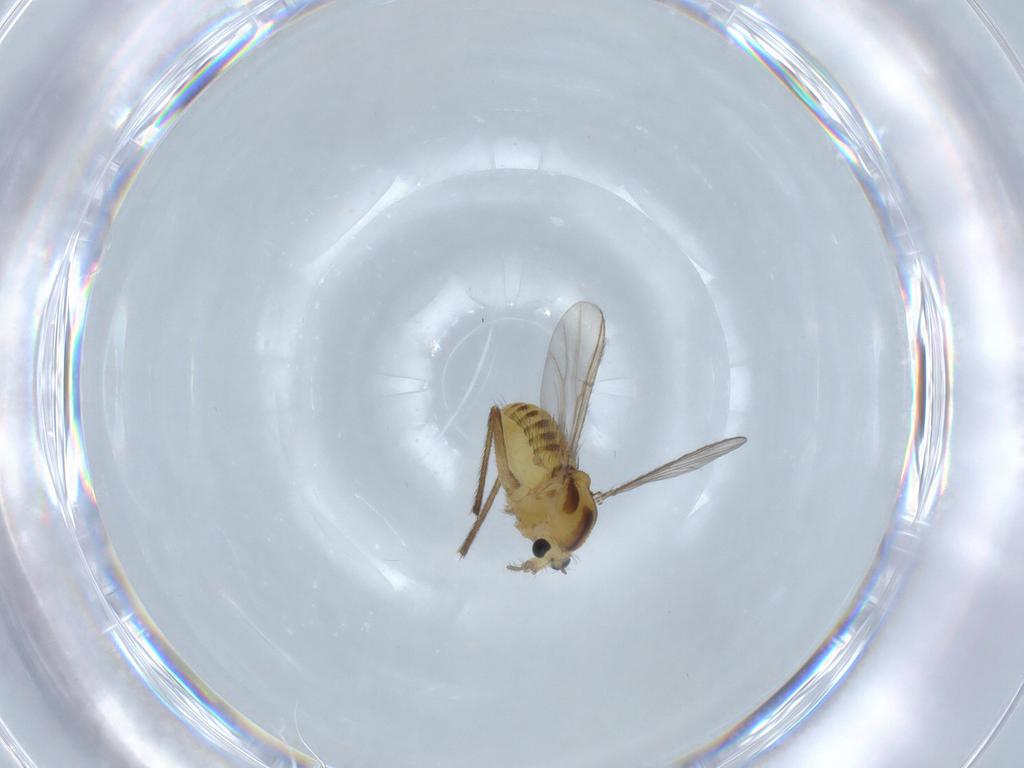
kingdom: Animalia
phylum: Arthropoda
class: Insecta
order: Diptera
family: Chironomidae
